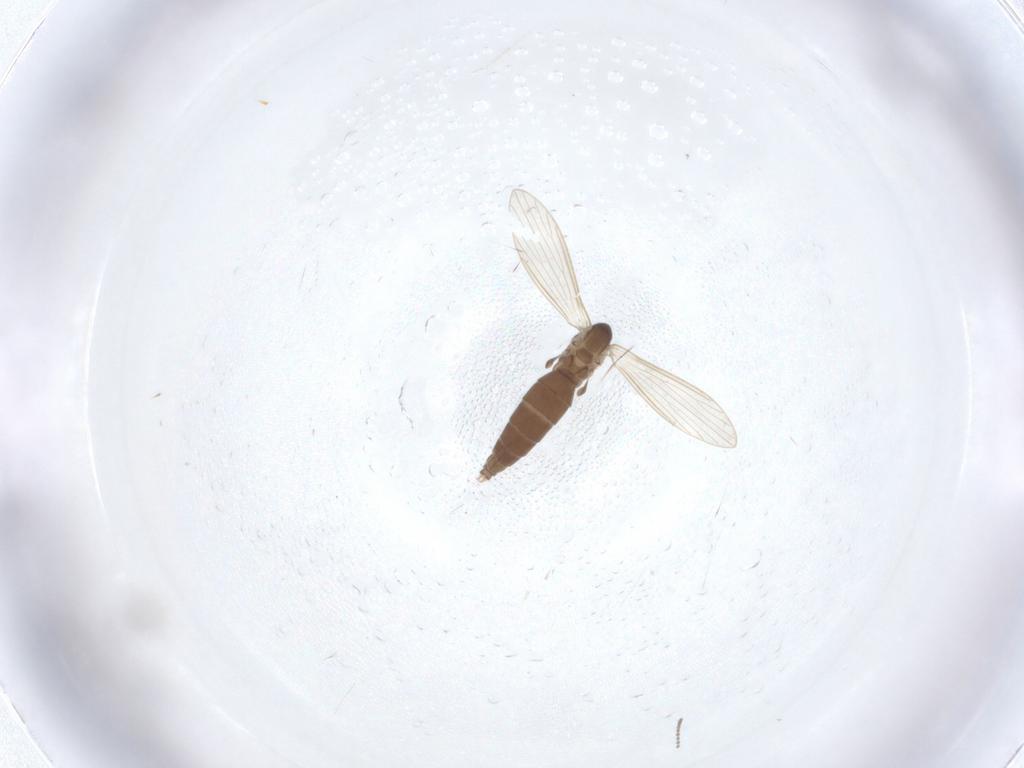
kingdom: Animalia
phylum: Arthropoda
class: Insecta
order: Diptera
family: Psychodidae
